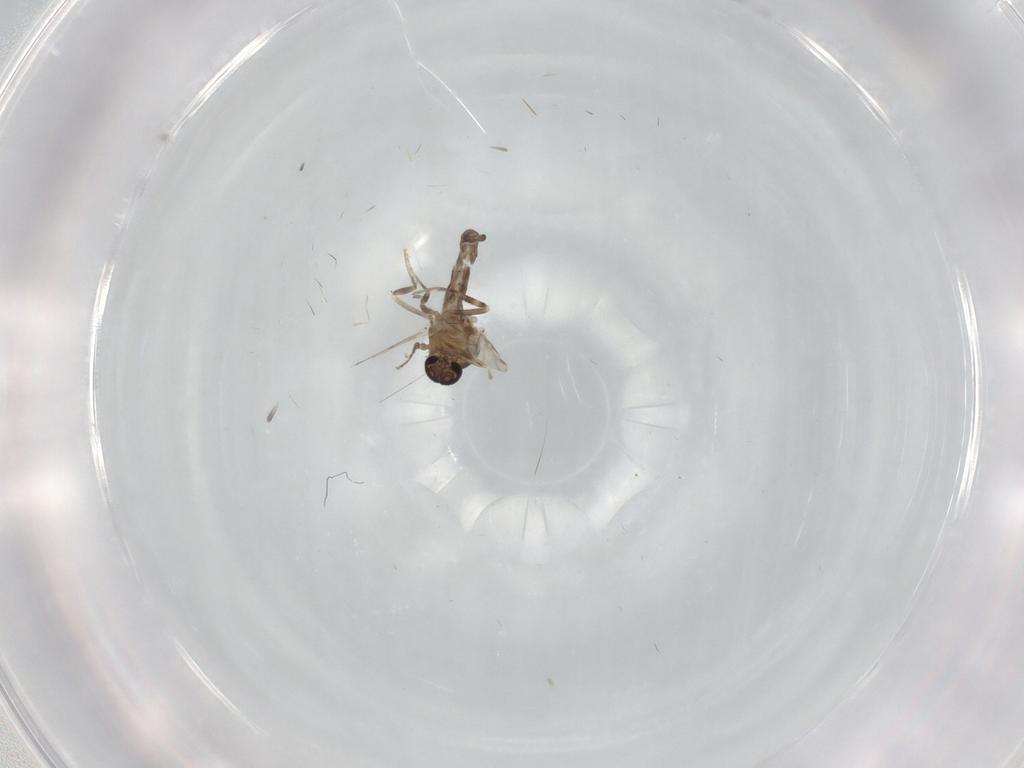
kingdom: Animalia
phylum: Arthropoda
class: Insecta
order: Diptera
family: Ceratopogonidae
